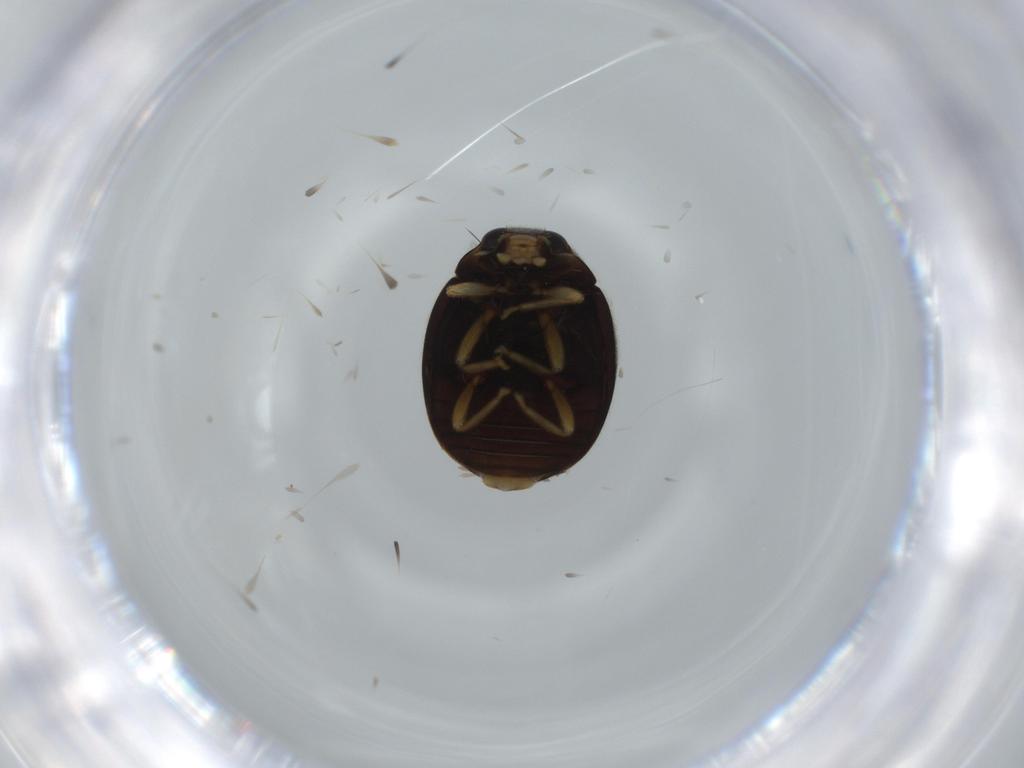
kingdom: Animalia
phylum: Arthropoda
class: Insecta
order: Coleoptera
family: Coccinellidae
